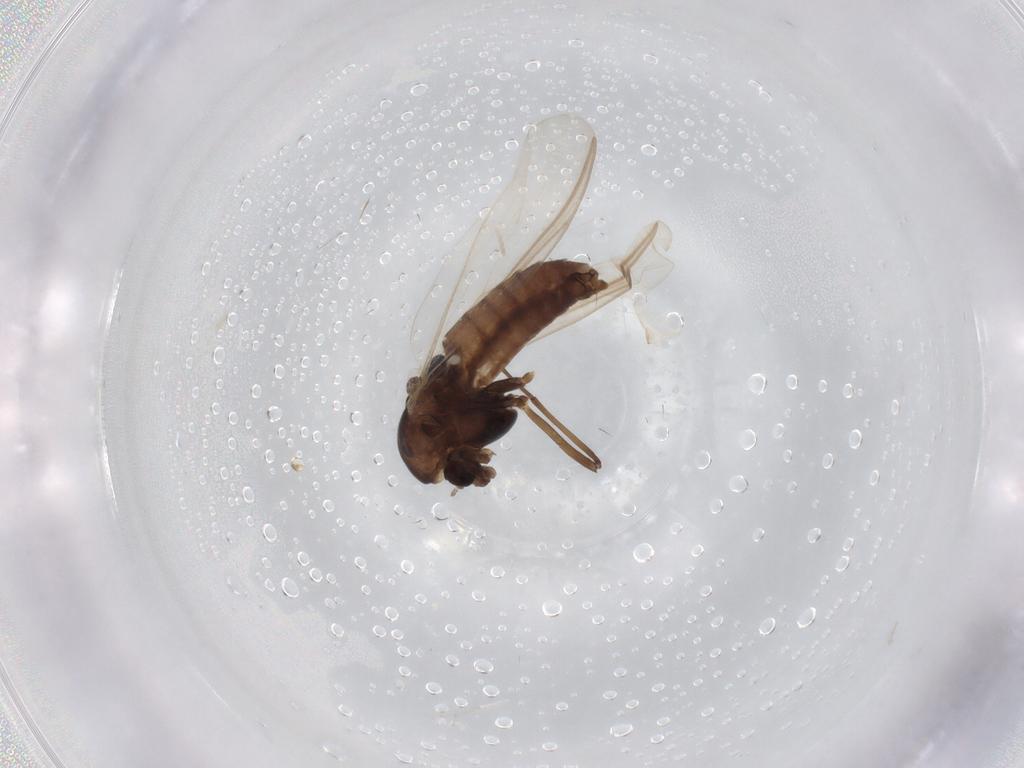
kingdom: Animalia
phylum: Arthropoda
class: Insecta
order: Diptera
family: Chironomidae
